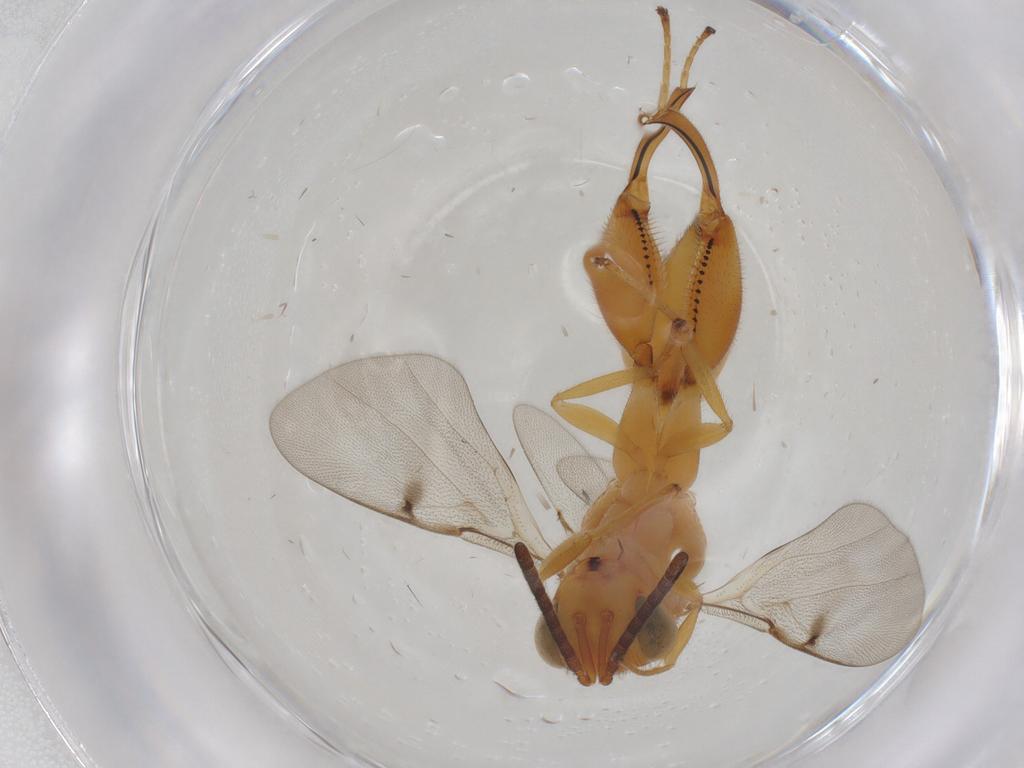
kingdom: Animalia
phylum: Arthropoda
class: Insecta
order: Hymenoptera
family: Chalcididae
